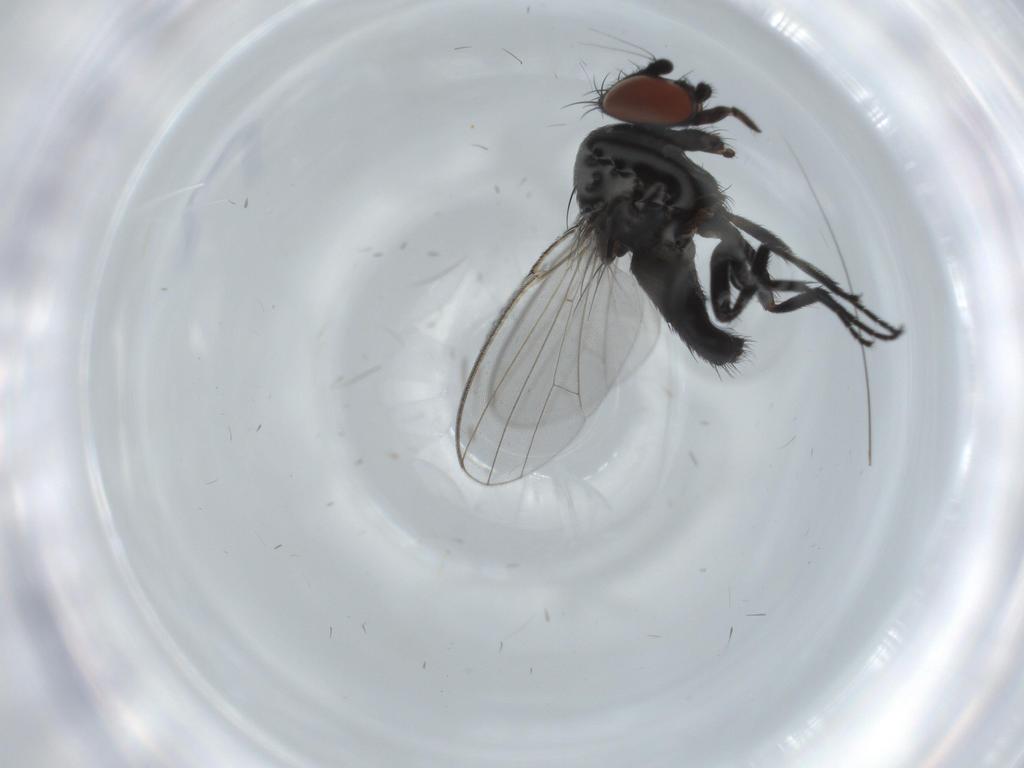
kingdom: Animalia
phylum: Arthropoda
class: Insecta
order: Diptera
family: Milichiidae
